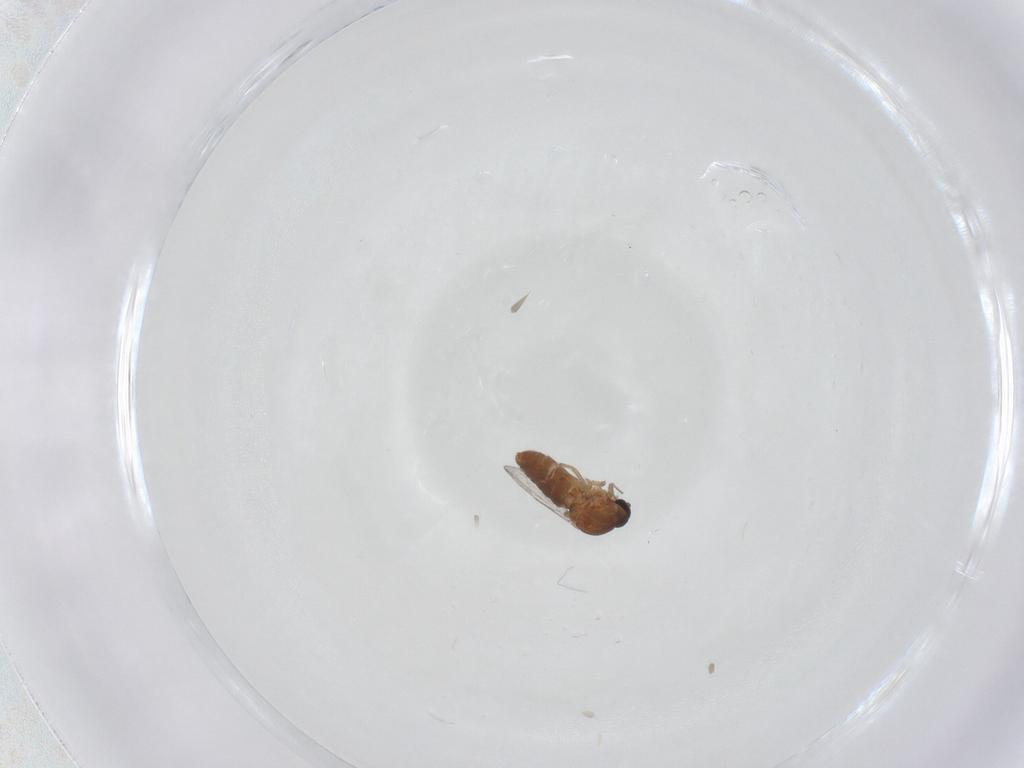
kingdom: Animalia
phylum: Arthropoda
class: Insecta
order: Diptera
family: Ceratopogonidae
